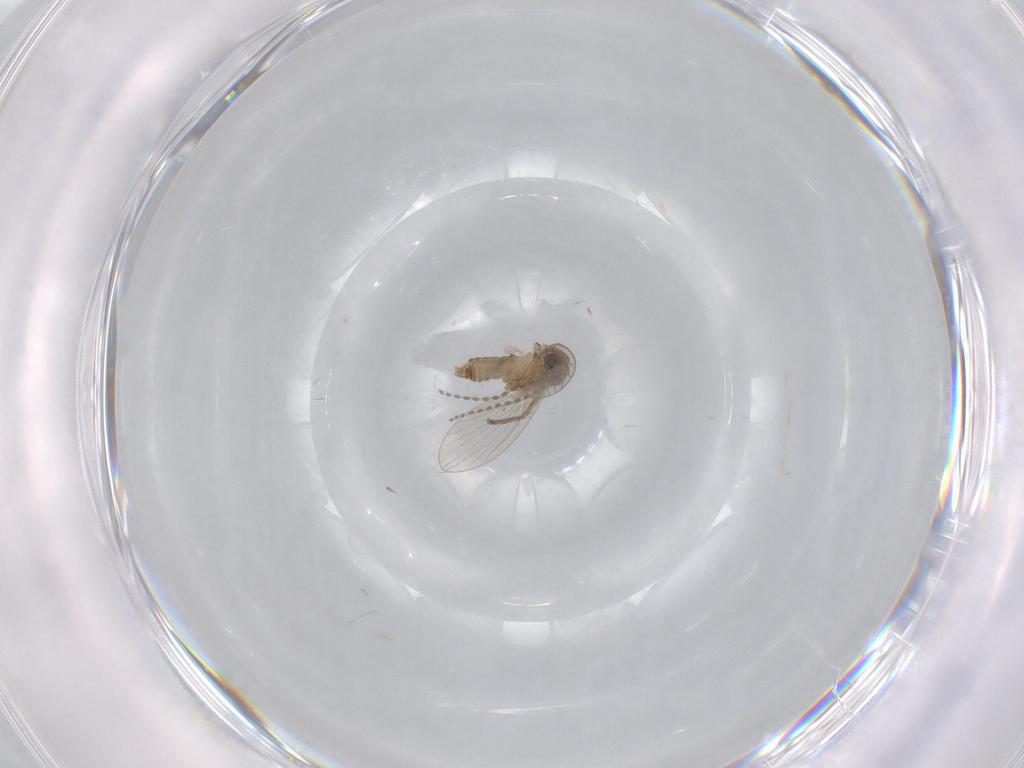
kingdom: Animalia
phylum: Arthropoda
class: Insecta
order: Diptera
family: Psychodidae
